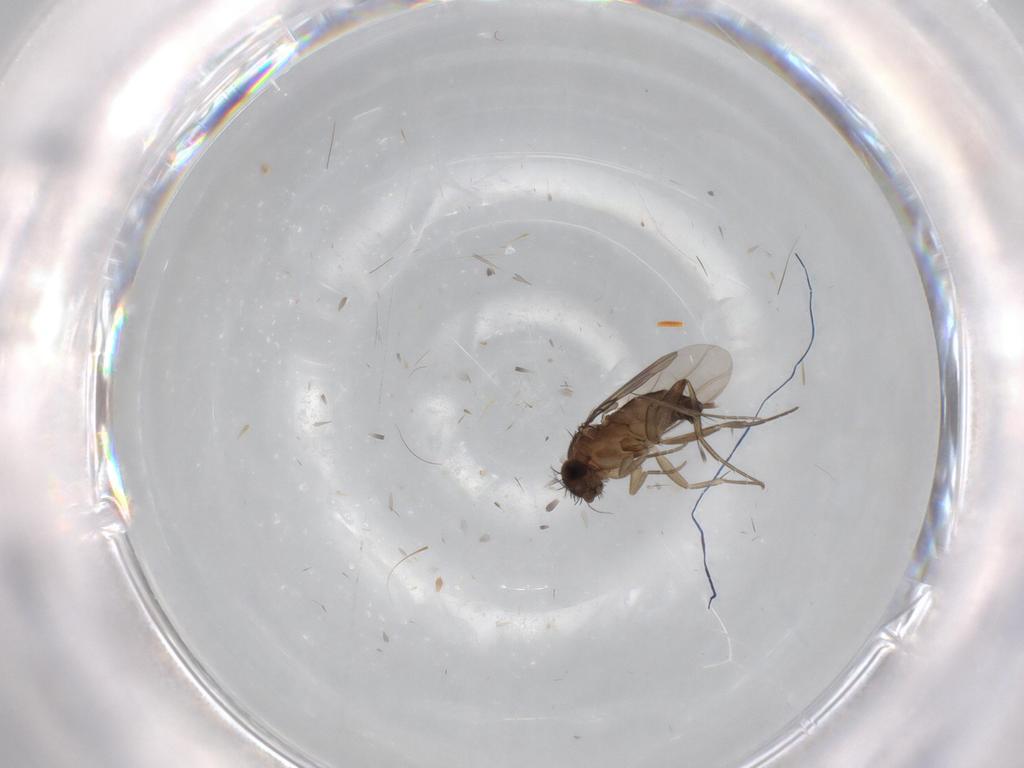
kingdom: Animalia
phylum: Arthropoda
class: Insecta
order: Diptera
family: Phoridae
